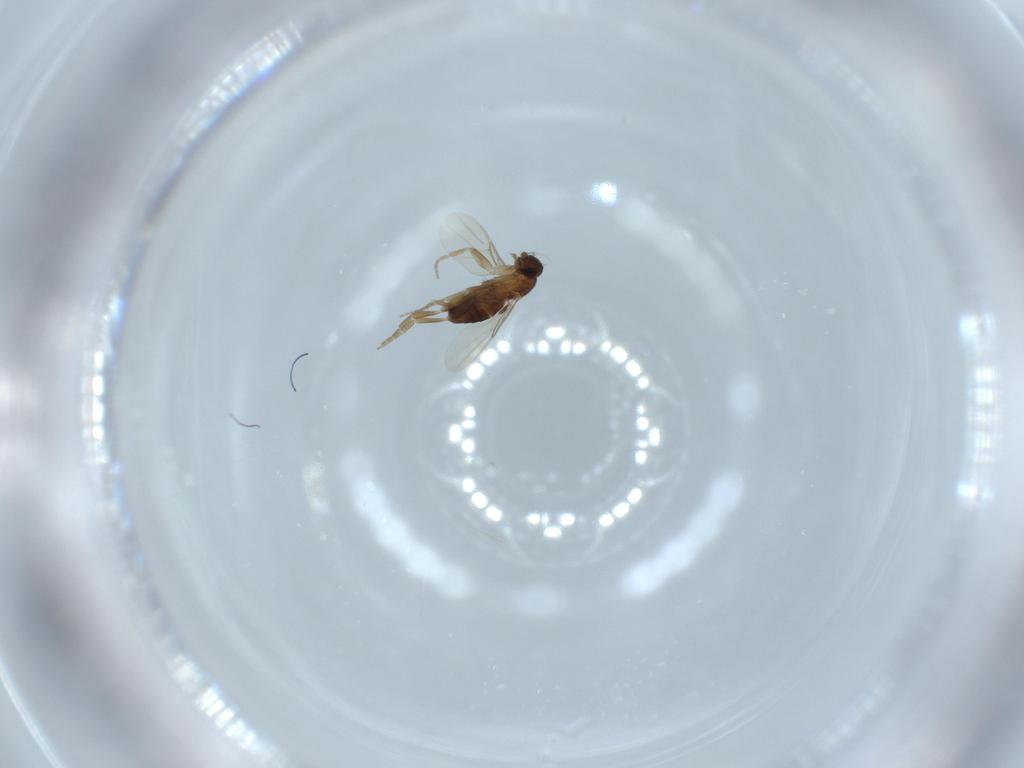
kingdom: Animalia
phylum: Arthropoda
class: Insecta
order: Diptera
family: Phoridae
